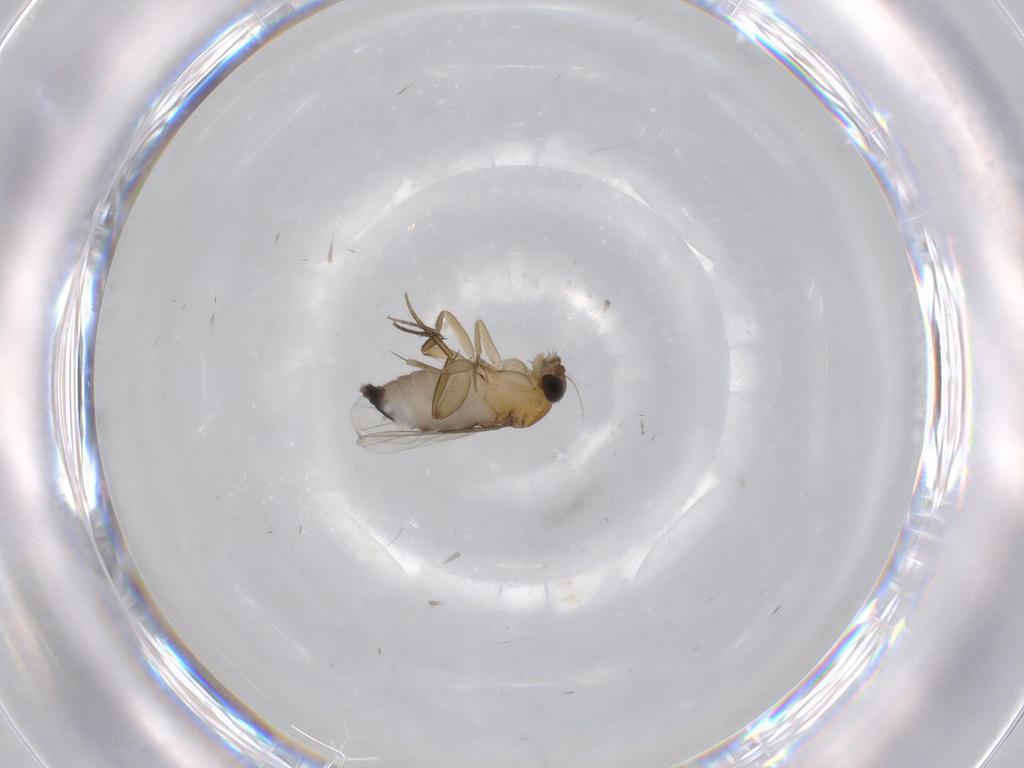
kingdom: Animalia
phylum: Arthropoda
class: Insecta
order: Diptera
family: Phoridae
